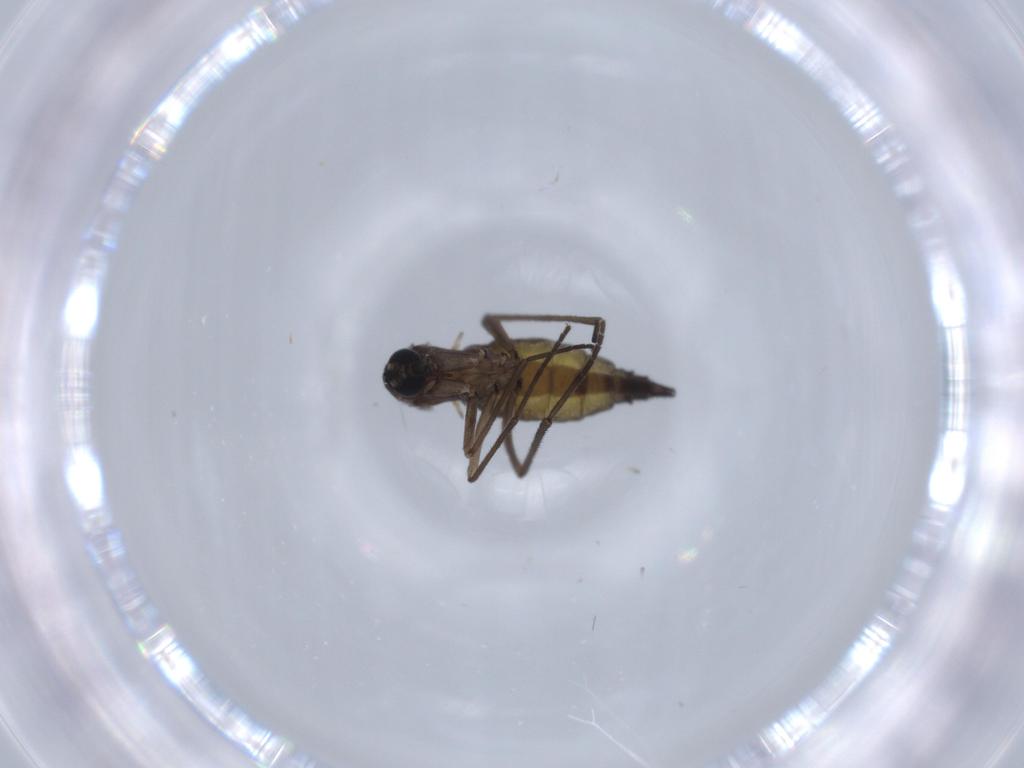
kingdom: Animalia
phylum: Arthropoda
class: Insecta
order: Diptera
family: Sciaridae
